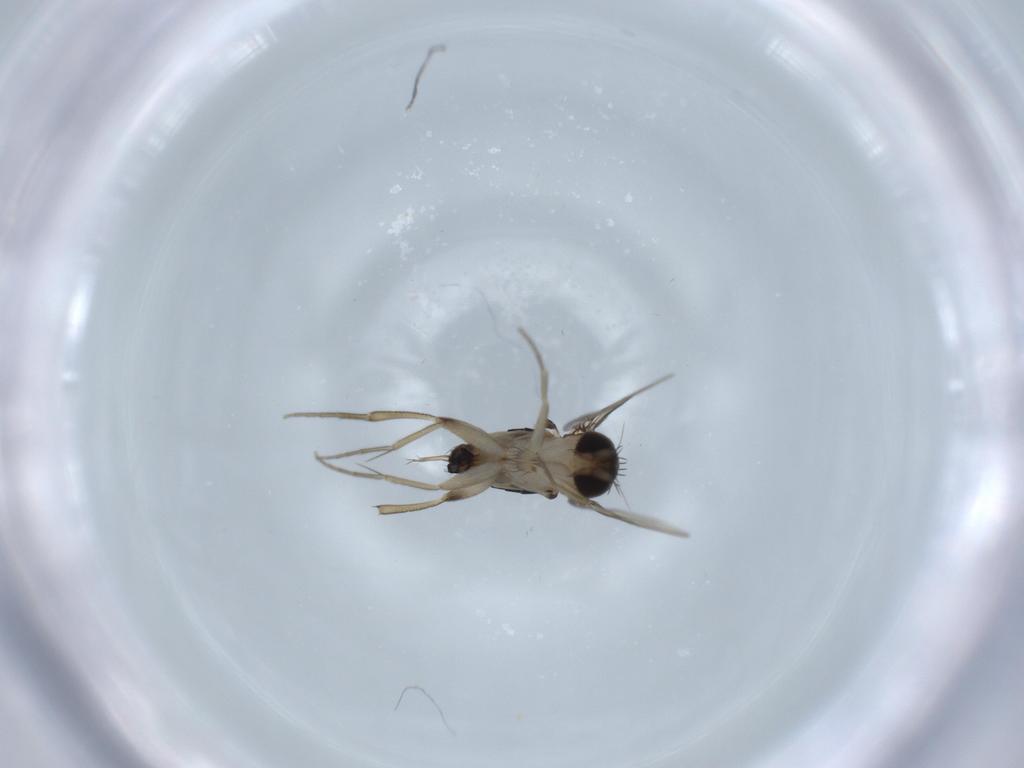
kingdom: Animalia
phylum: Arthropoda
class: Insecta
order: Diptera
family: Phoridae
